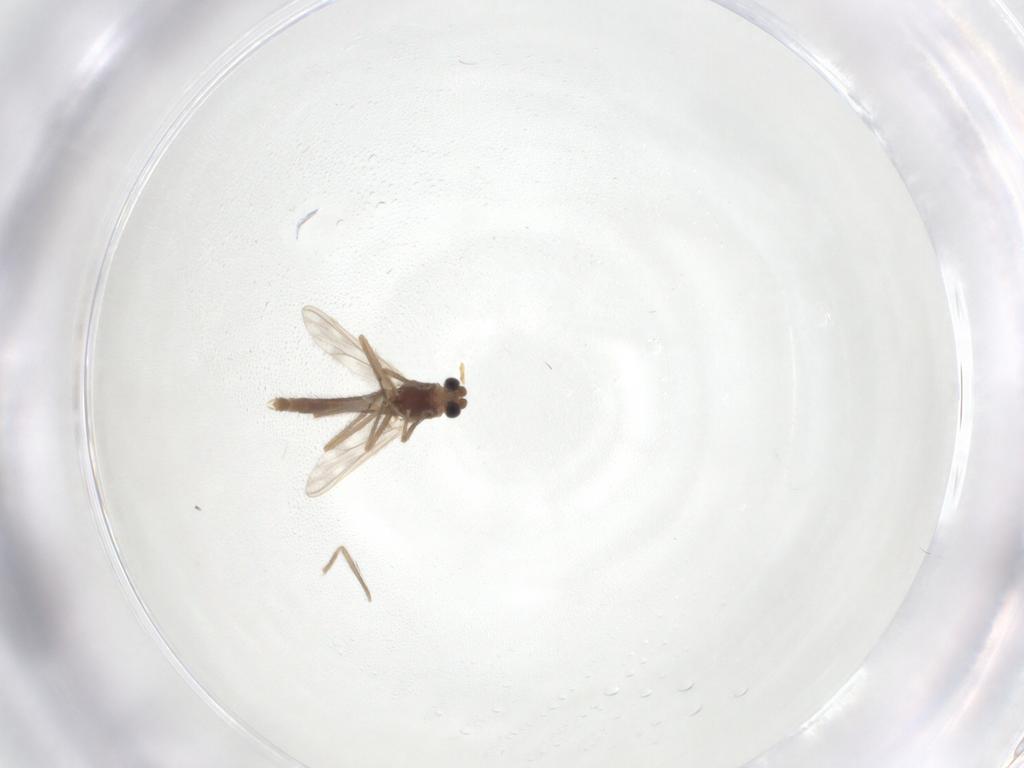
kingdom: Animalia
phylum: Arthropoda
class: Insecta
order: Diptera
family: Chironomidae
